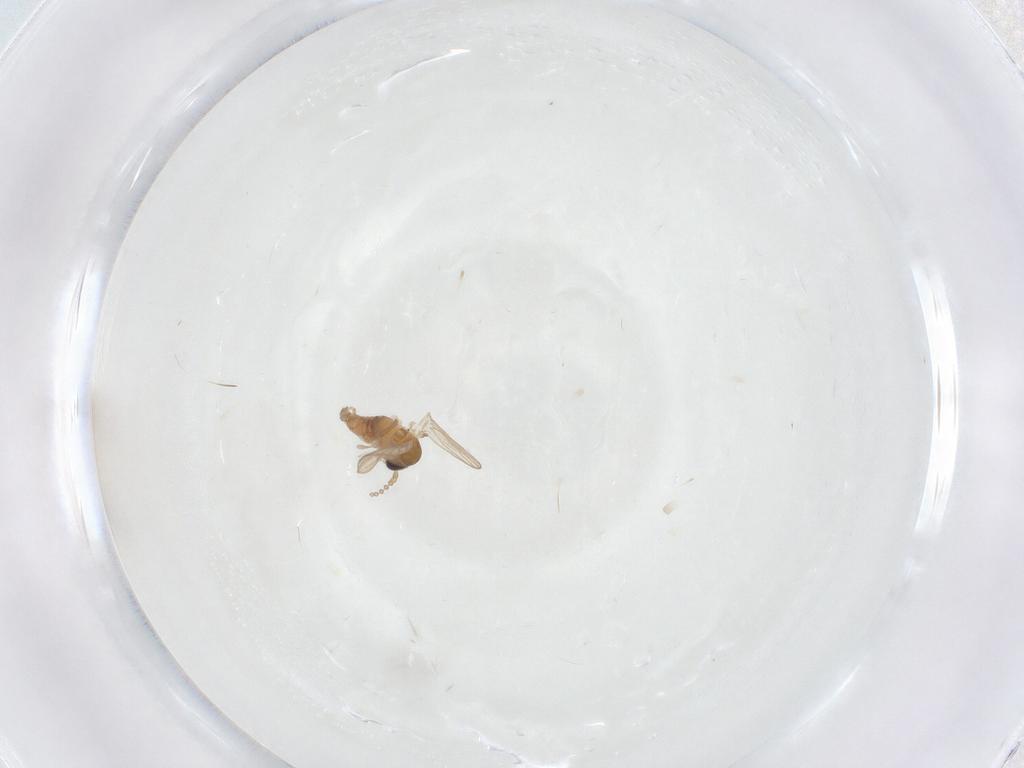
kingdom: Animalia
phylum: Arthropoda
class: Insecta
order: Diptera
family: Psychodidae
